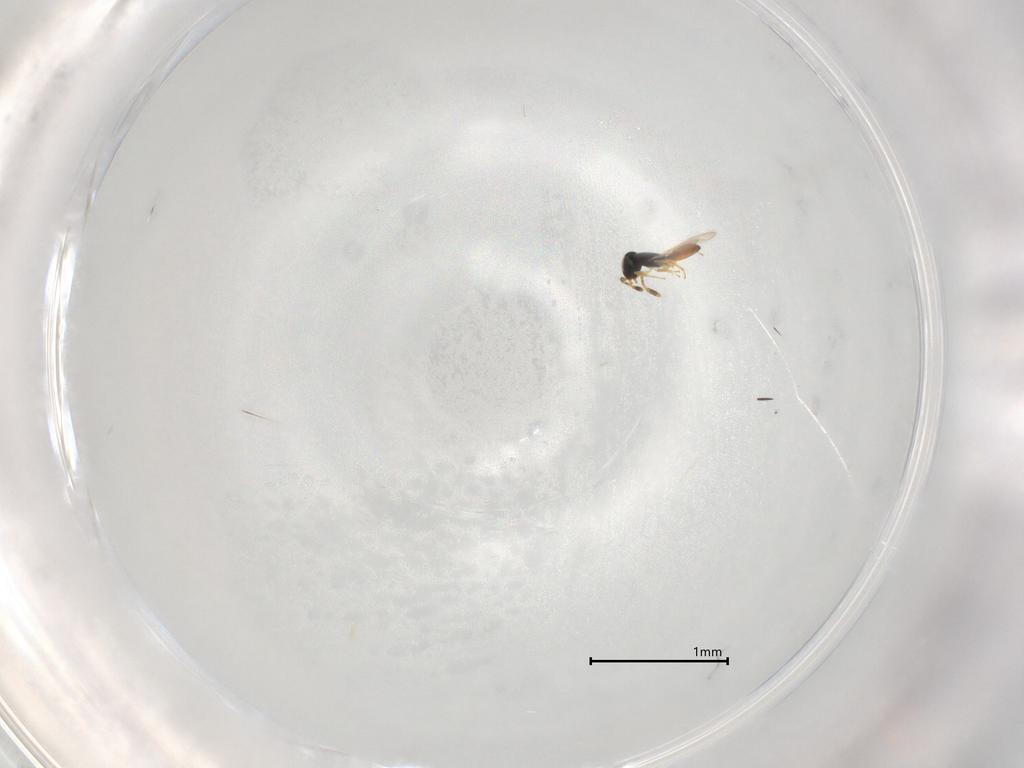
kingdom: Animalia
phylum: Arthropoda
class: Insecta
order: Hymenoptera
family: Scelionidae
